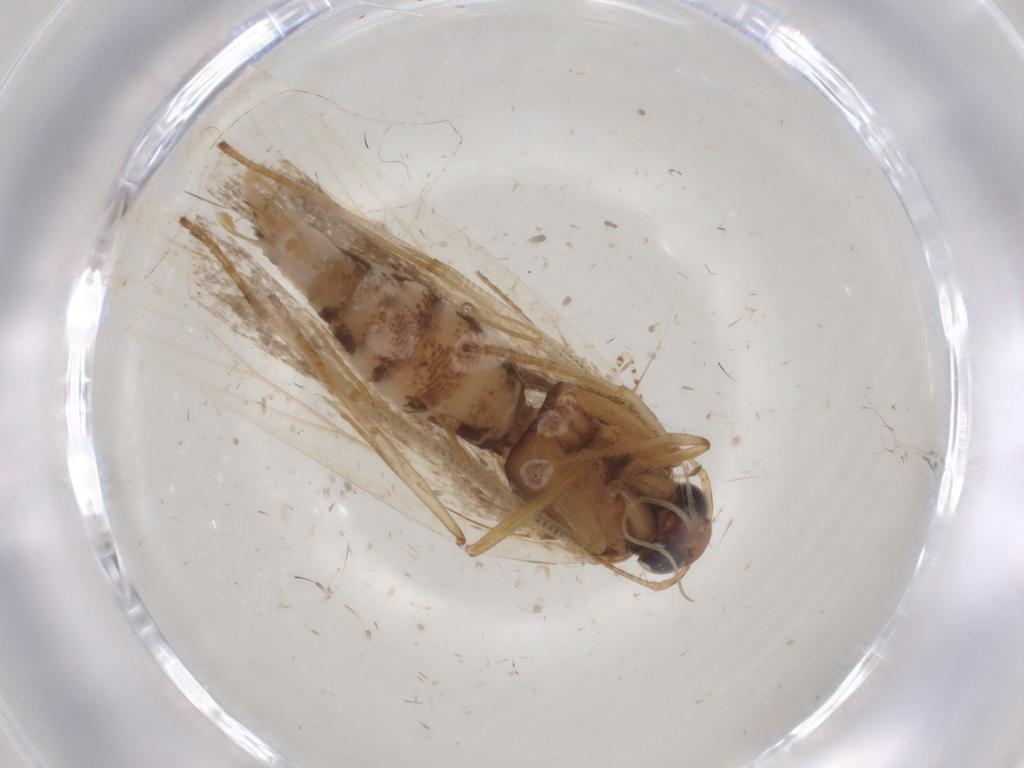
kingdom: Animalia
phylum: Arthropoda
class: Insecta
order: Lepidoptera
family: Gelechiidae
